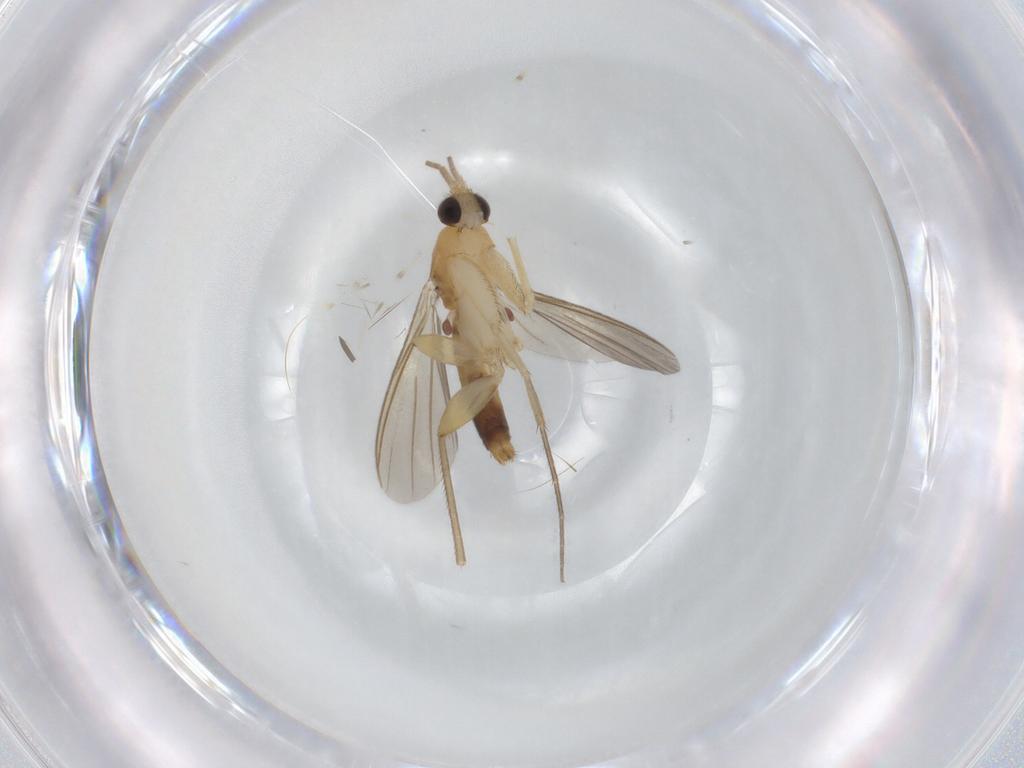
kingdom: Animalia
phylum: Arthropoda
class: Insecta
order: Diptera
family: Mycetophilidae
